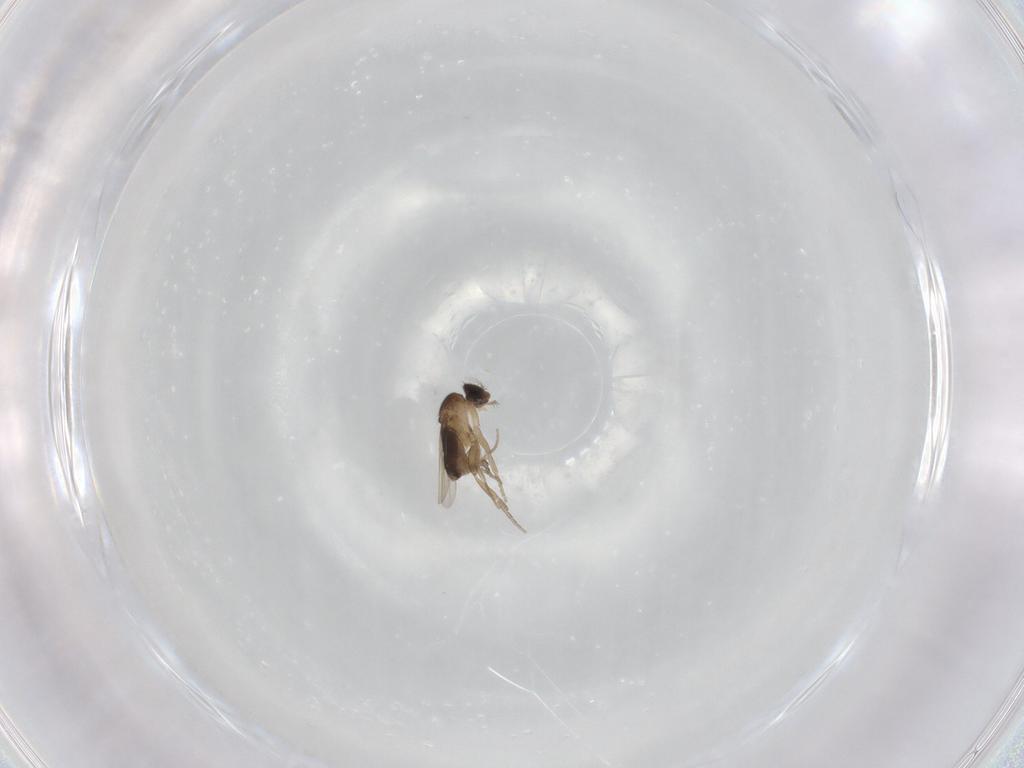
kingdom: Animalia
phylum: Arthropoda
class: Insecta
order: Diptera
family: Phoridae
